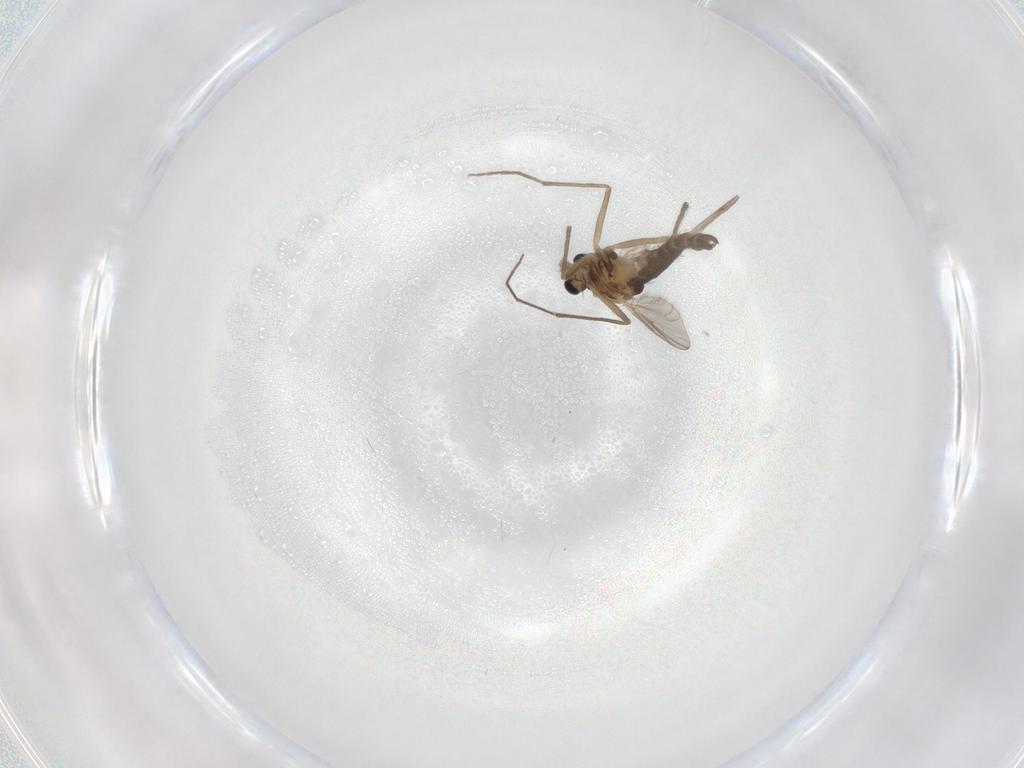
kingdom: Animalia
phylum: Arthropoda
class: Insecta
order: Diptera
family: Chironomidae
